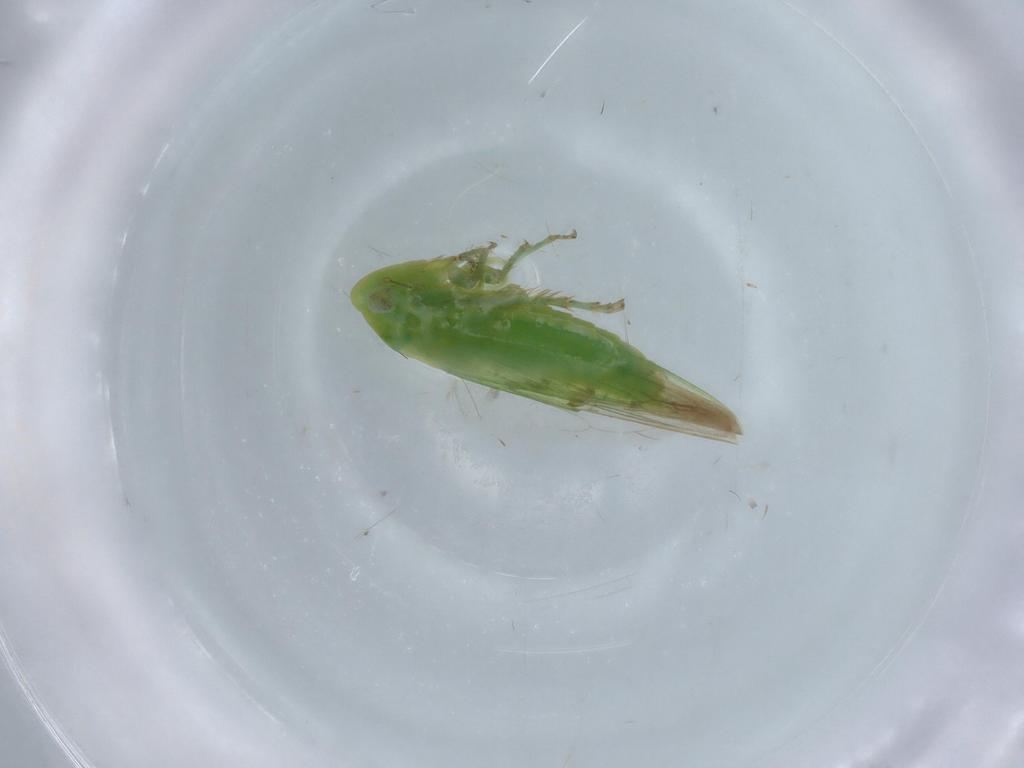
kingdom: Animalia
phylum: Arthropoda
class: Insecta
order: Hemiptera
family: Cicadellidae
